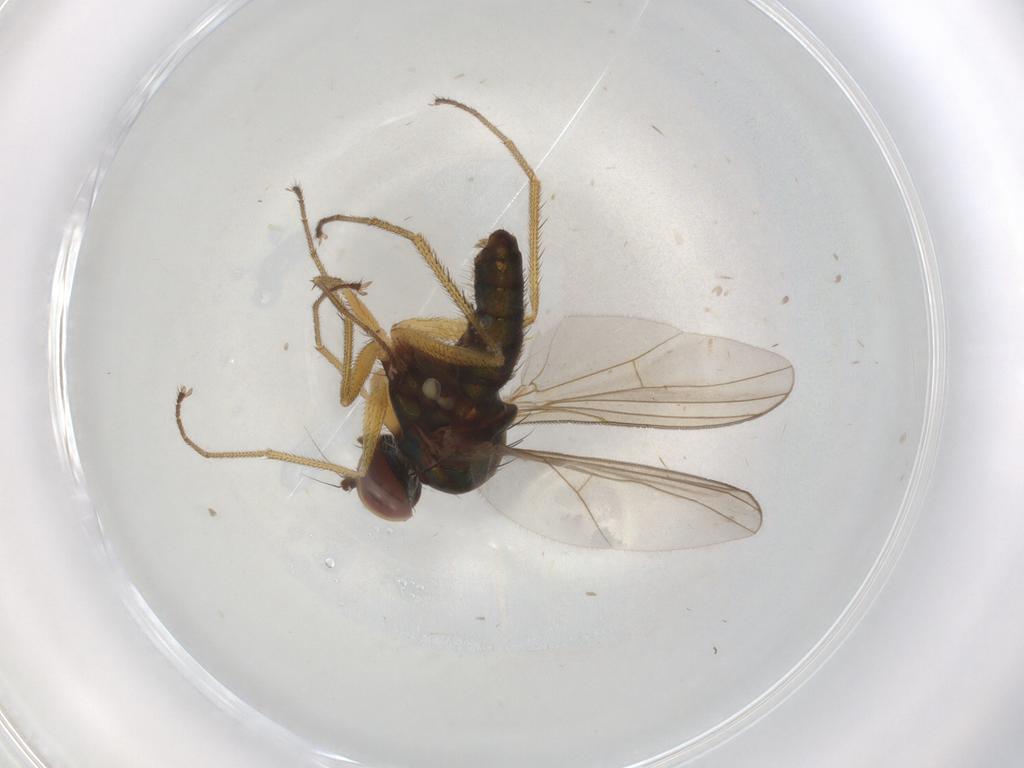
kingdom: Animalia
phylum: Arthropoda
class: Insecta
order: Diptera
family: Dolichopodidae
